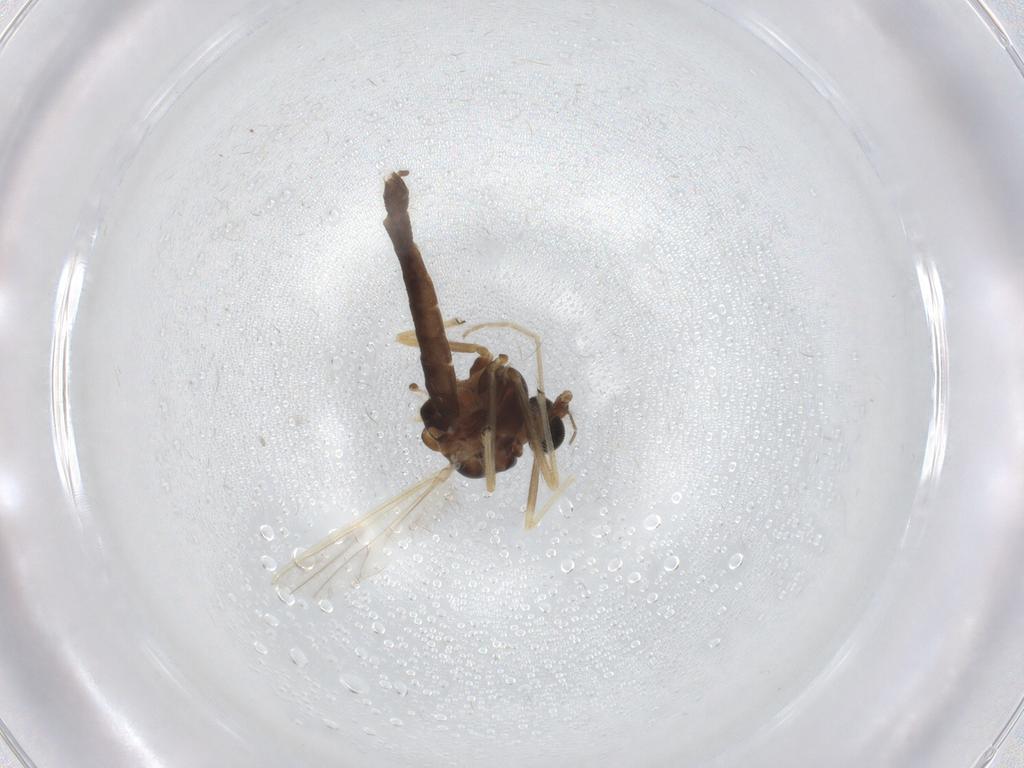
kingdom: Animalia
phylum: Arthropoda
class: Insecta
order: Diptera
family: Chironomidae
